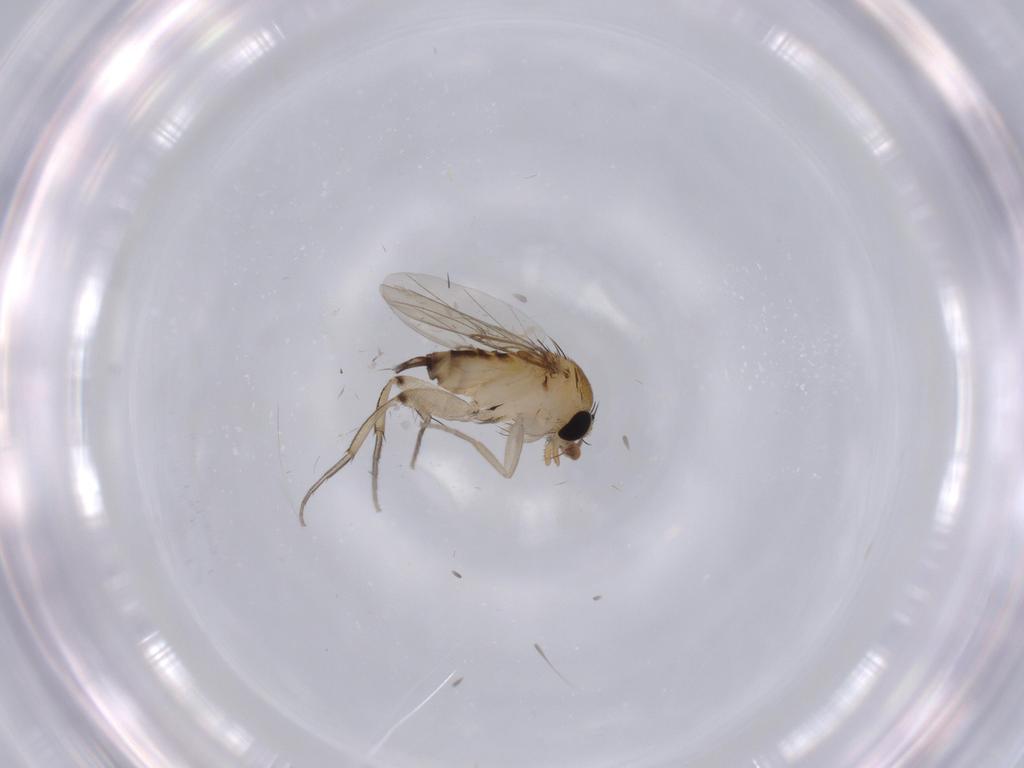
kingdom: Animalia
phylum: Arthropoda
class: Insecta
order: Diptera
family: Phoridae
